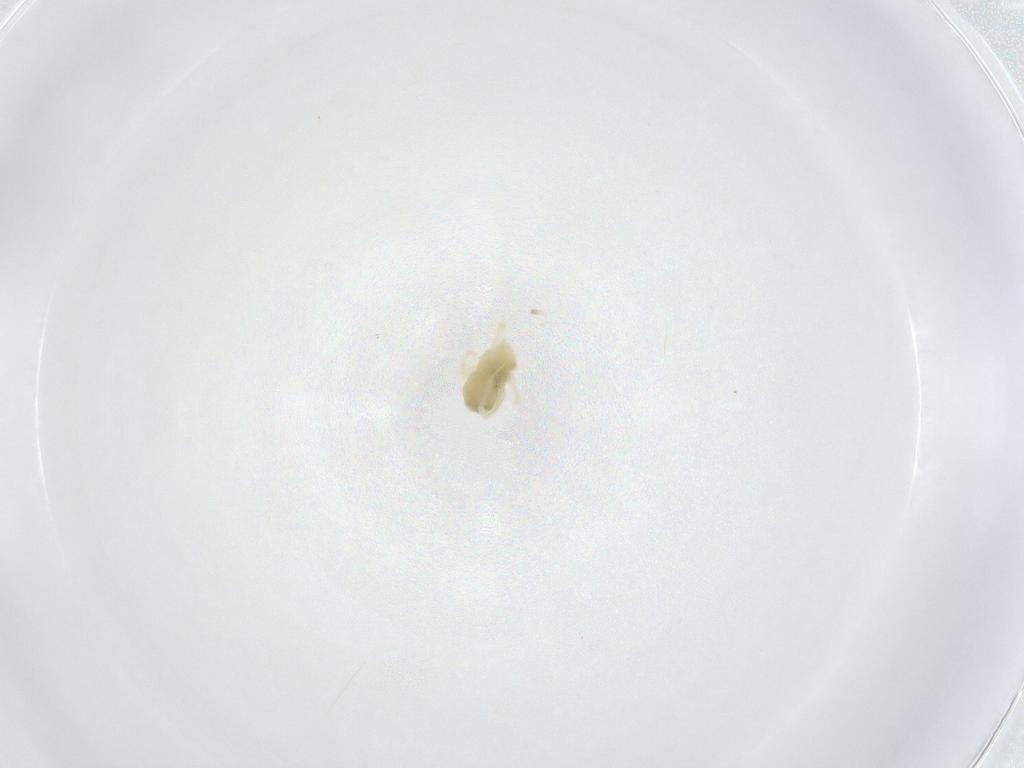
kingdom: Animalia
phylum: Arthropoda
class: Arachnida
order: Trombidiformes
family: Anystidae
